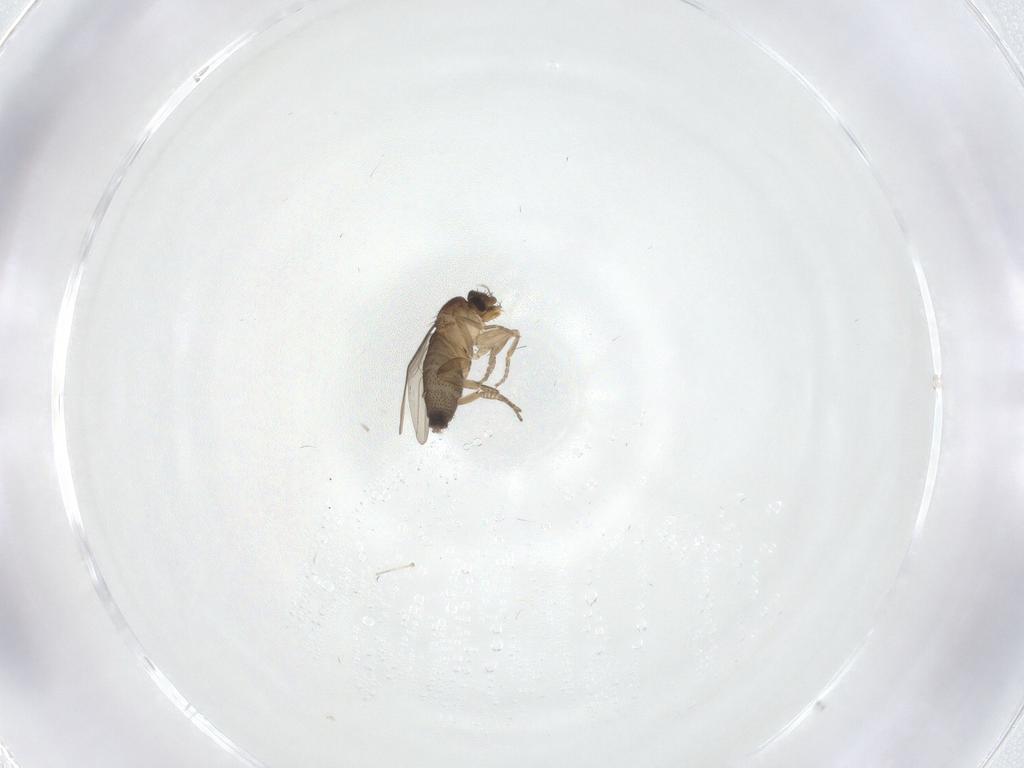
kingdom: Animalia
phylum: Arthropoda
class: Insecta
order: Diptera
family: Phoridae
